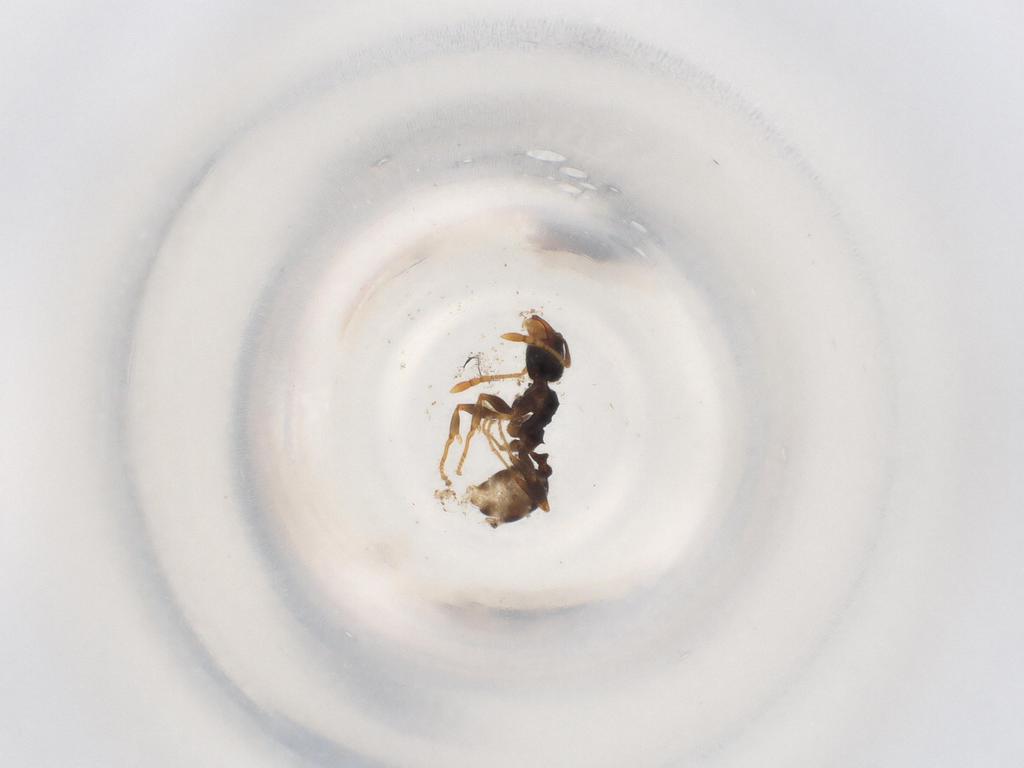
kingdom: Animalia
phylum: Arthropoda
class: Insecta
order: Hymenoptera
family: Formicidae
